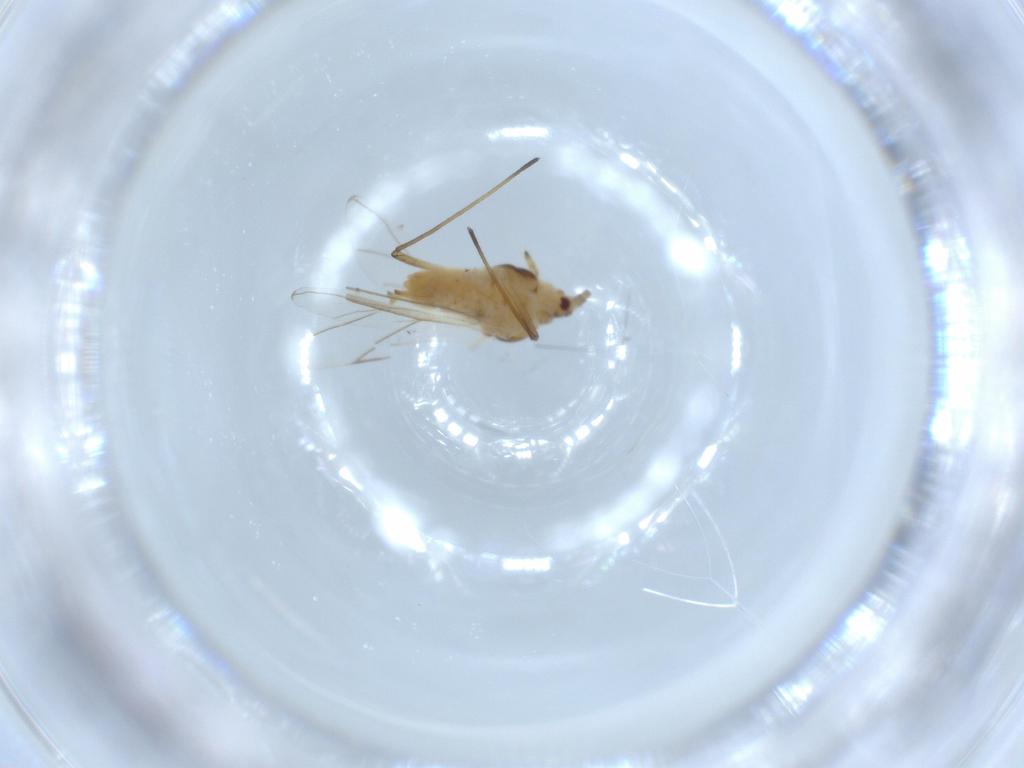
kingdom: Animalia
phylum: Arthropoda
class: Insecta
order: Hemiptera
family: Aphididae
